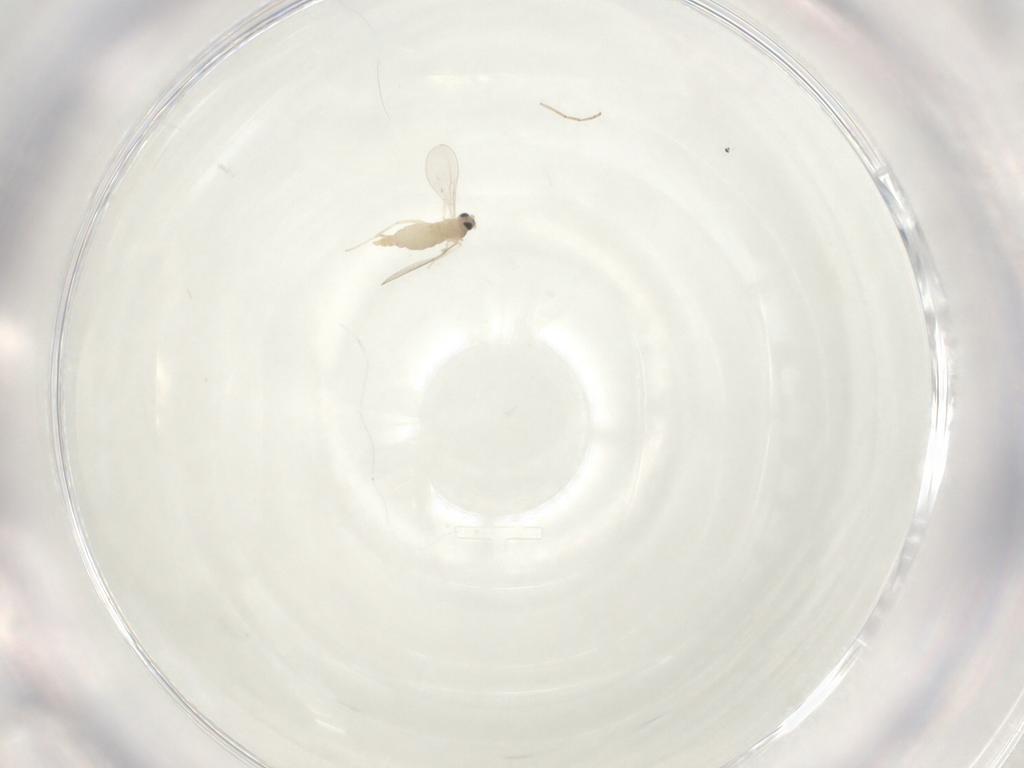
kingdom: Animalia
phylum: Arthropoda
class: Insecta
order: Diptera
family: Cecidomyiidae
